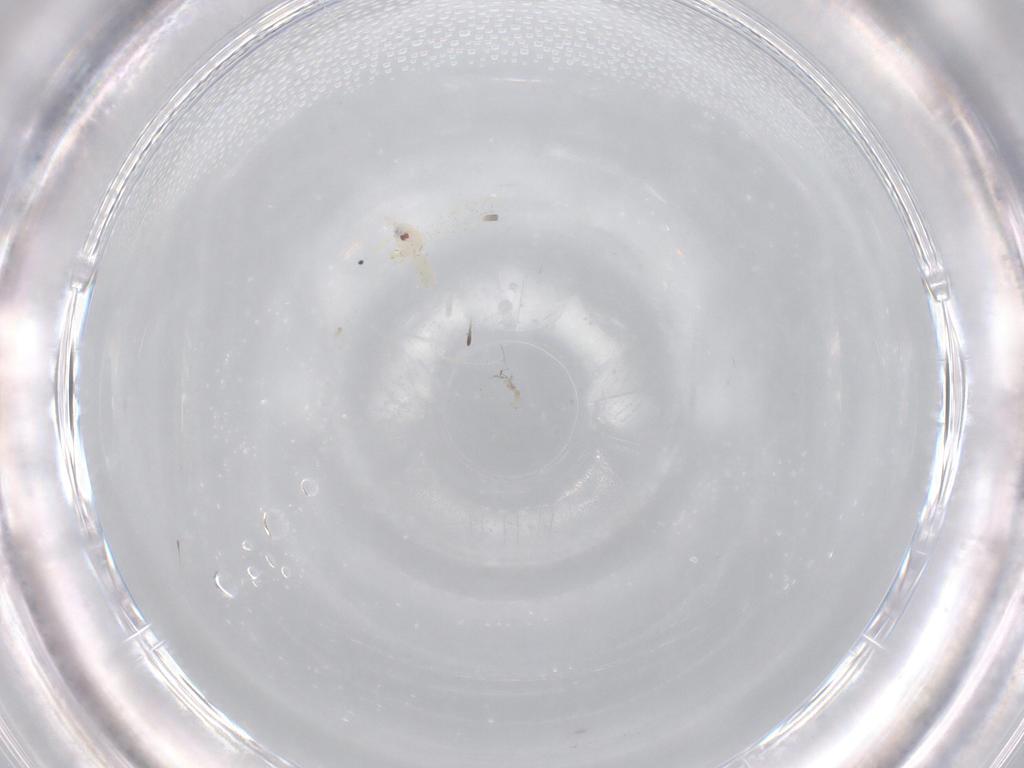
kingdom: Animalia
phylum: Arthropoda
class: Insecta
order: Hemiptera
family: Aleyrodidae
